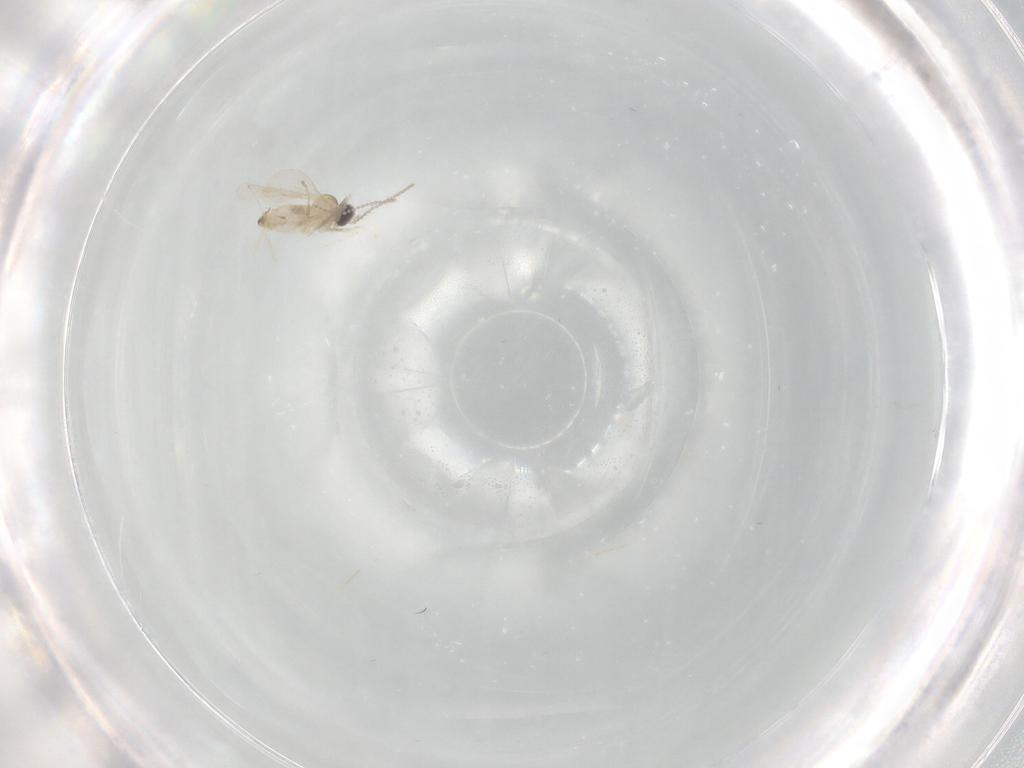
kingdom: Animalia
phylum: Arthropoda
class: Insecta
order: Diptera
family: Cecidomyiidae
